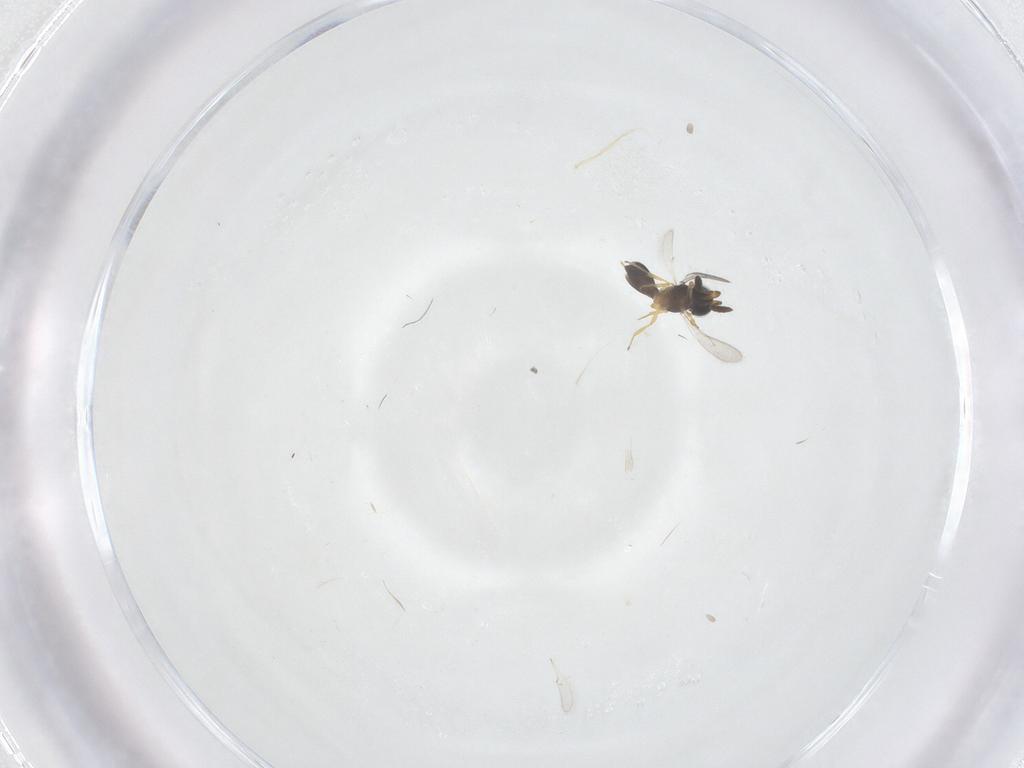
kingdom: Animalia
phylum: Arthropoda
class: Insecta
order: Hymenoptera
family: Scelionidae
